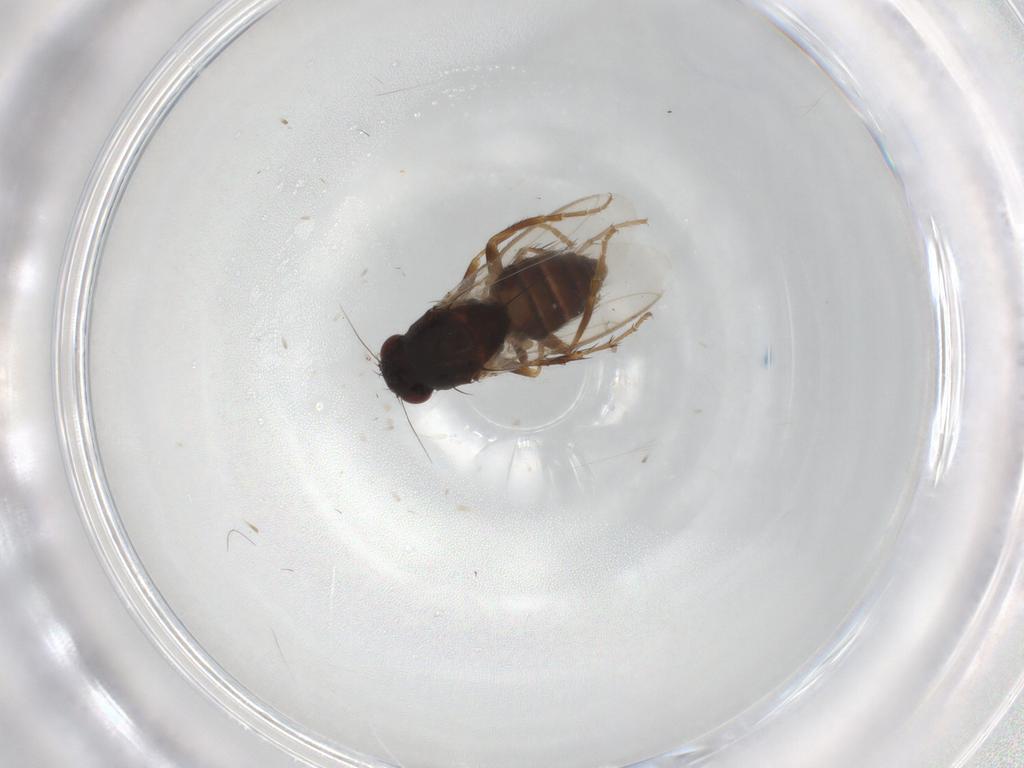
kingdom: Animalia
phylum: Arthropoda
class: Insecta
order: Diptera
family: Sphaeroceridae
